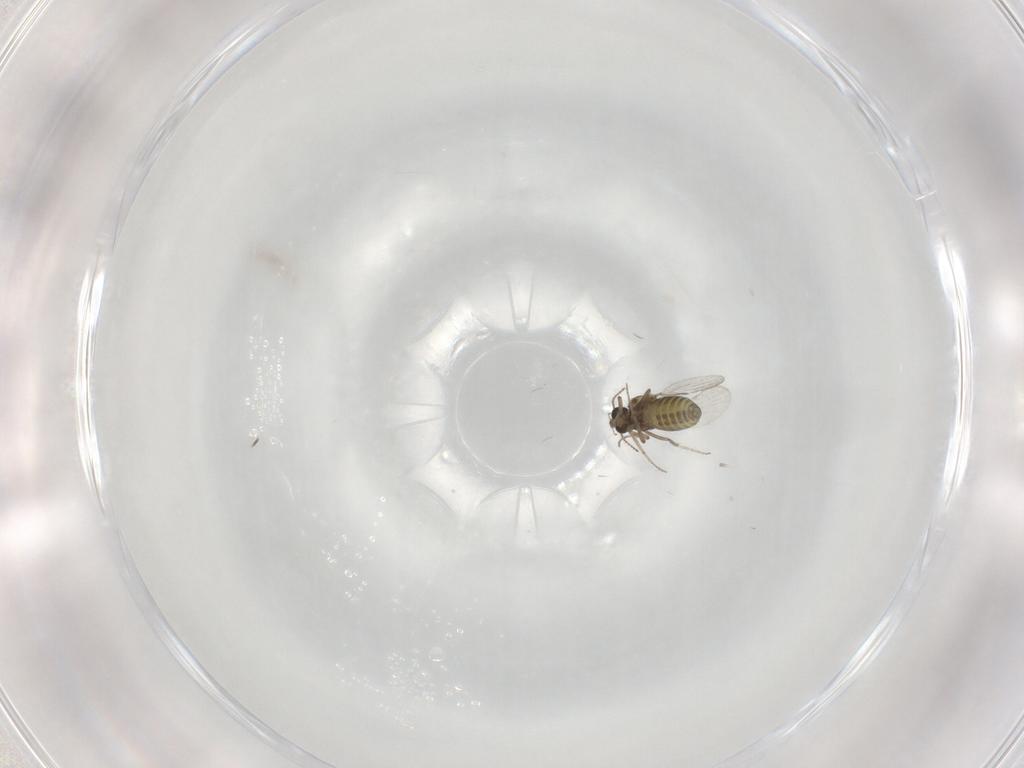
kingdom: Animalia
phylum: Arthropoda
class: Insecta
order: Diptera
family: Ceratopogonidae
